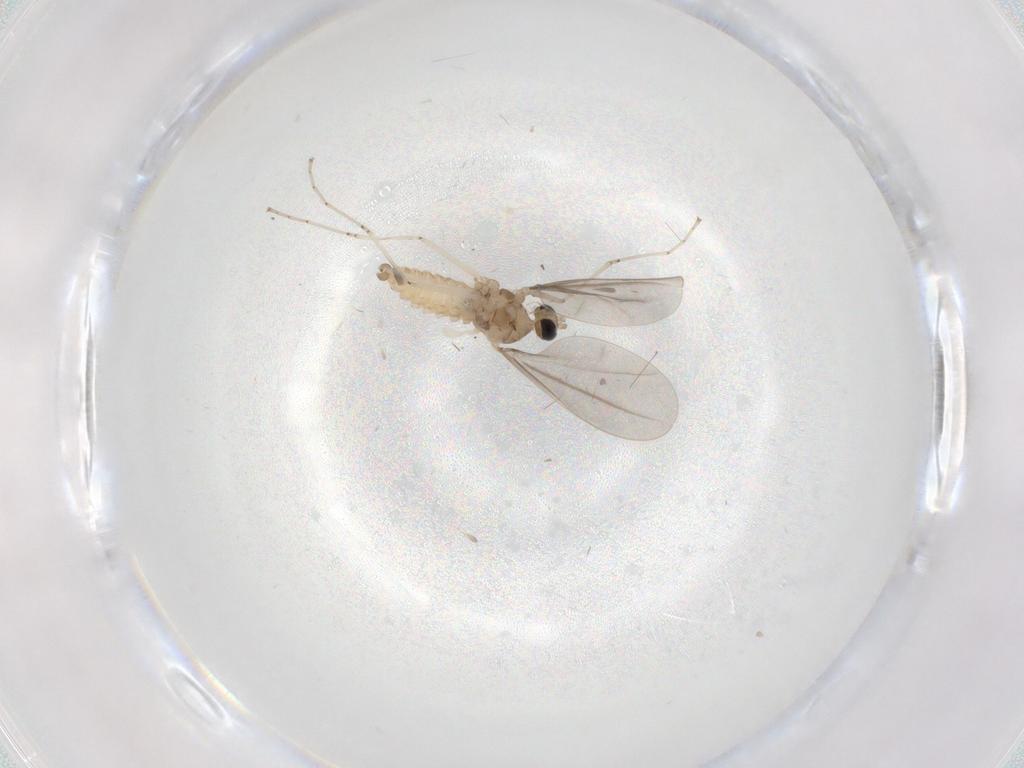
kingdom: Animalia
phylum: Arthropoda
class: Insecta
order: Diptera
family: Cecidomyiidae
